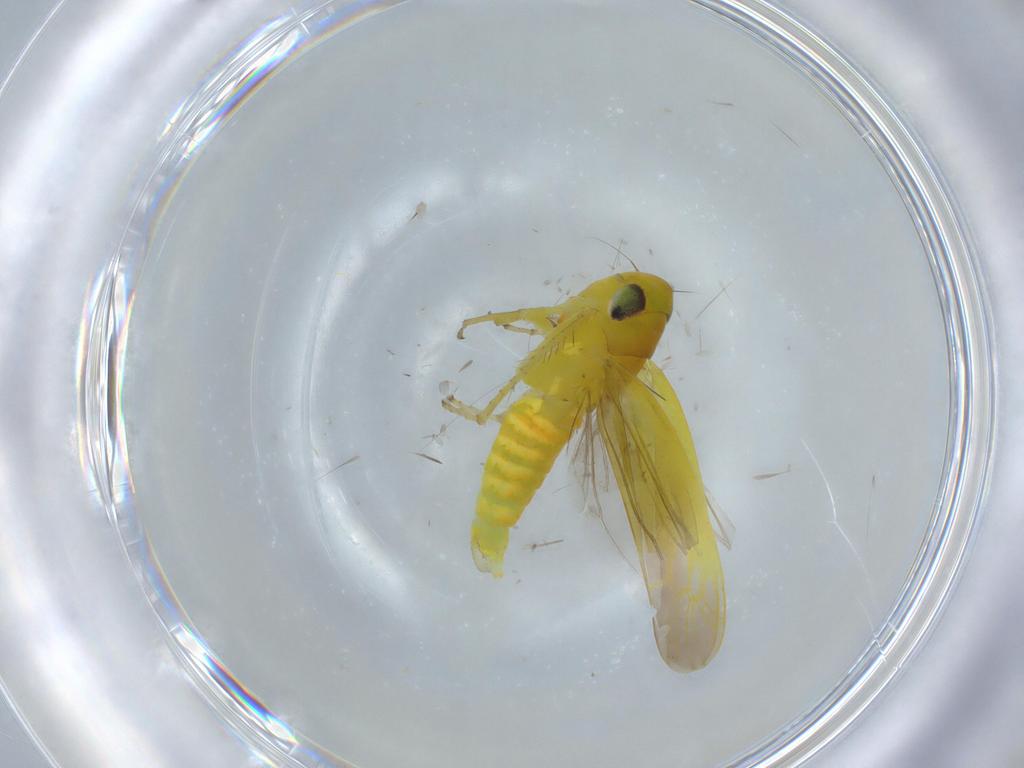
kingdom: Animalia
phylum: Arthropoda
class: Insecta
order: Hemiptera
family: Cicadellidae
